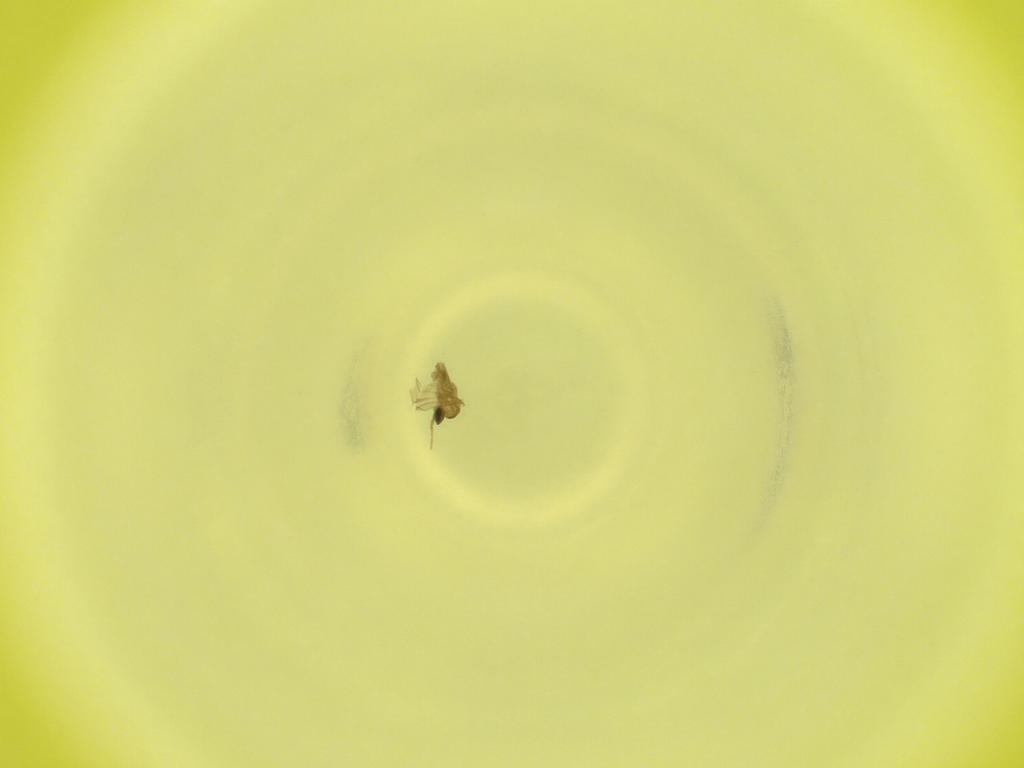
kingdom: Animalia
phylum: Arthropoda
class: Insecta
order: Diptera
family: Cecidomyiidae
